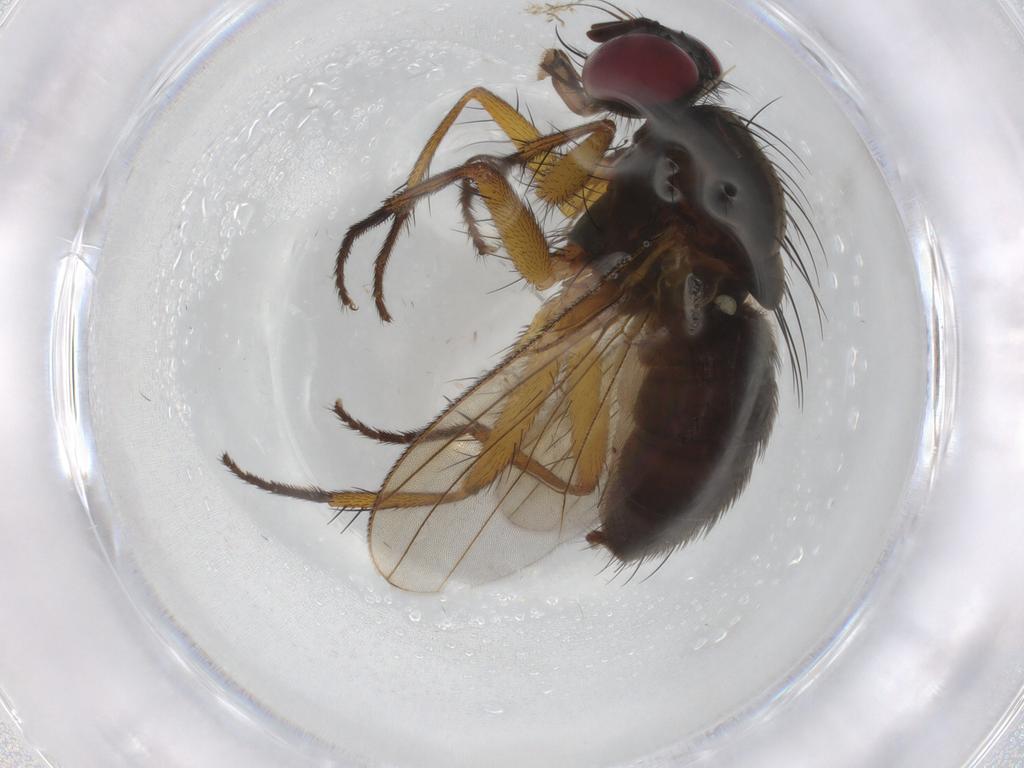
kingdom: Animalia
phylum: Arthropoda
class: Insecta
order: Diptera
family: Muscidae
